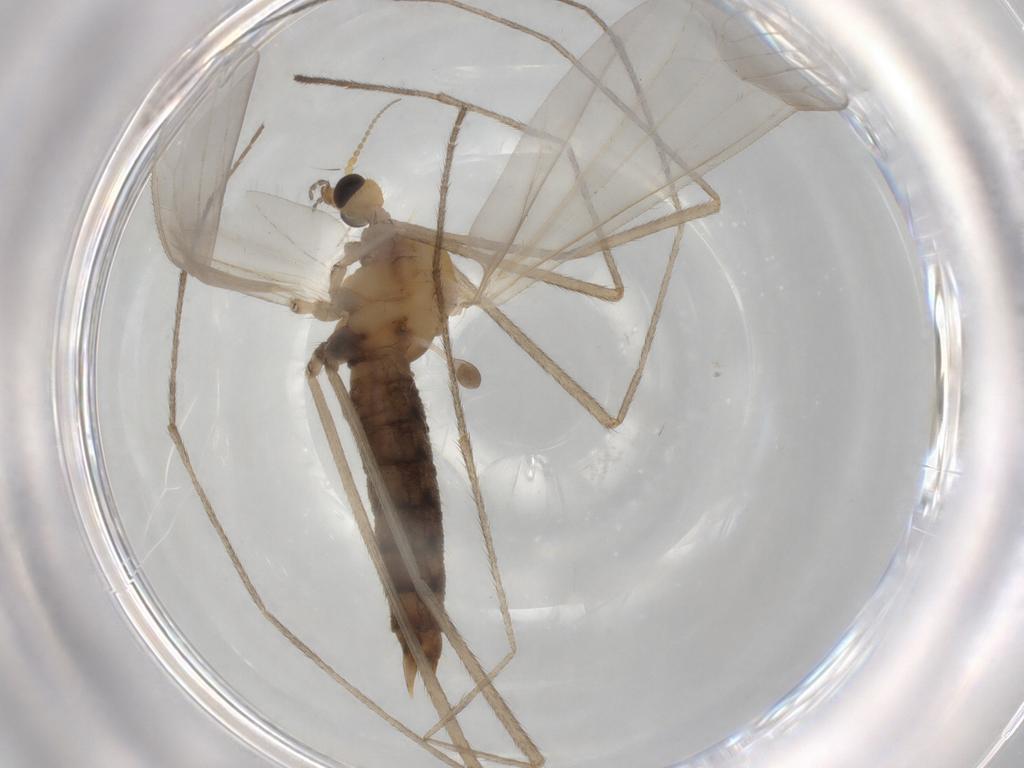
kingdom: Animalia
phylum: Arthropoda
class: Insecta
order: Diptera
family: Limoniidae
